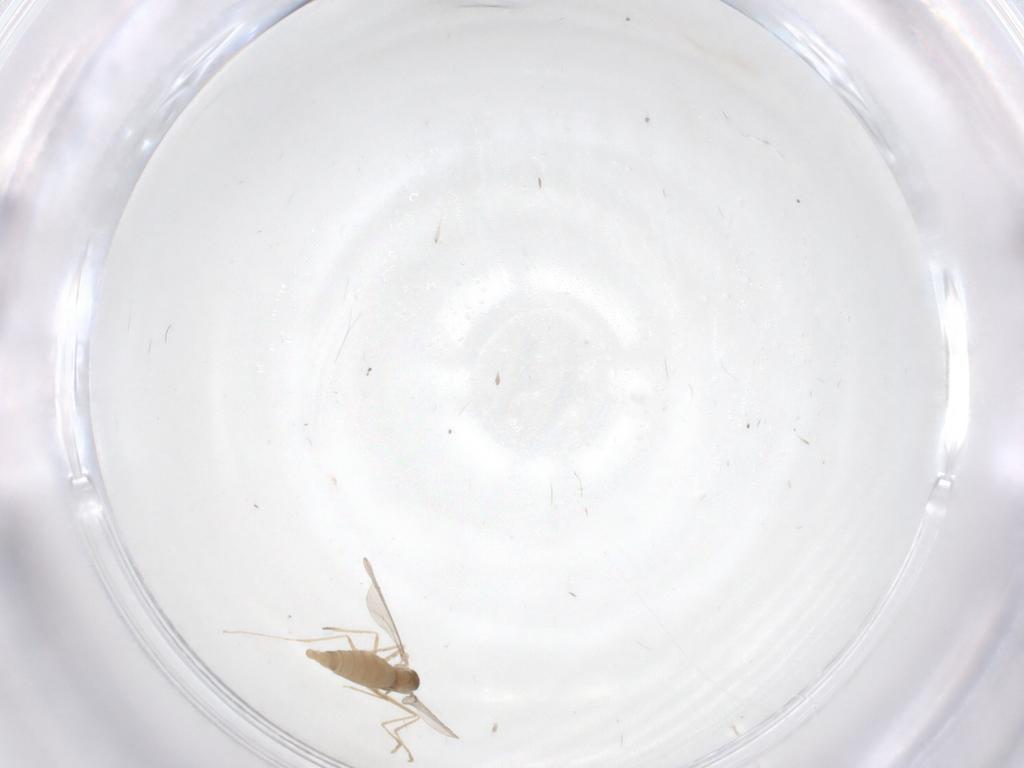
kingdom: Animalia
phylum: Arthropoda
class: Insecta
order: Diptera
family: Cecidomyiidae
